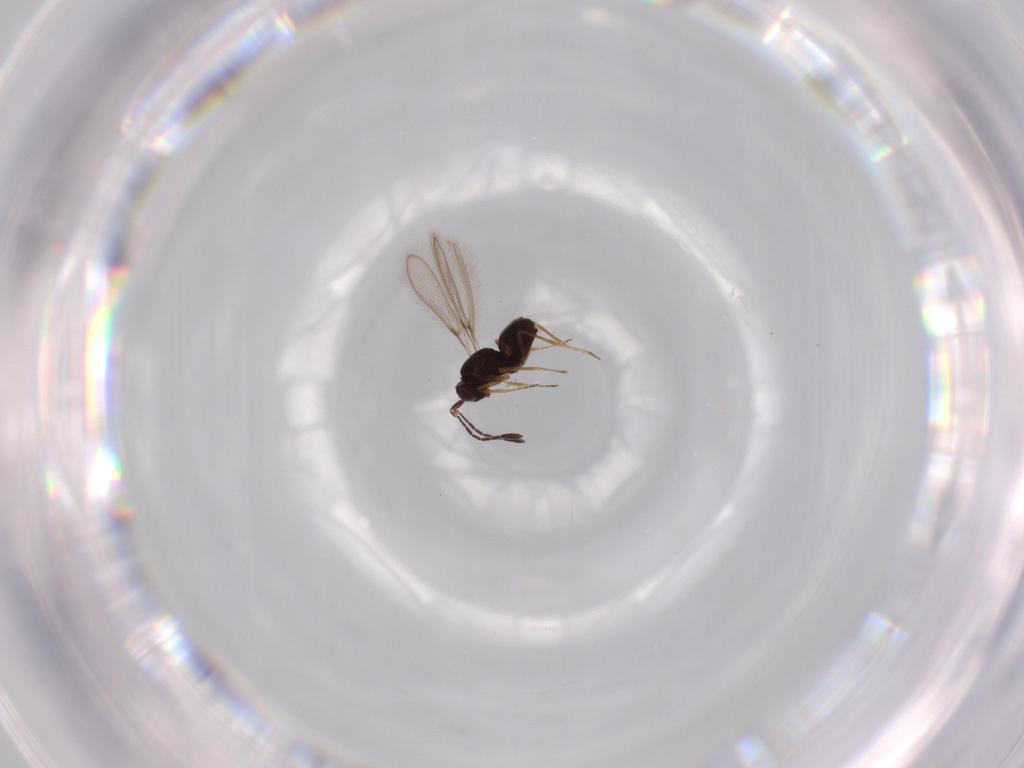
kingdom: Animalia
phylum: Arthropoda
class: Insecta
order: Hymenoptera
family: Mymaridae
